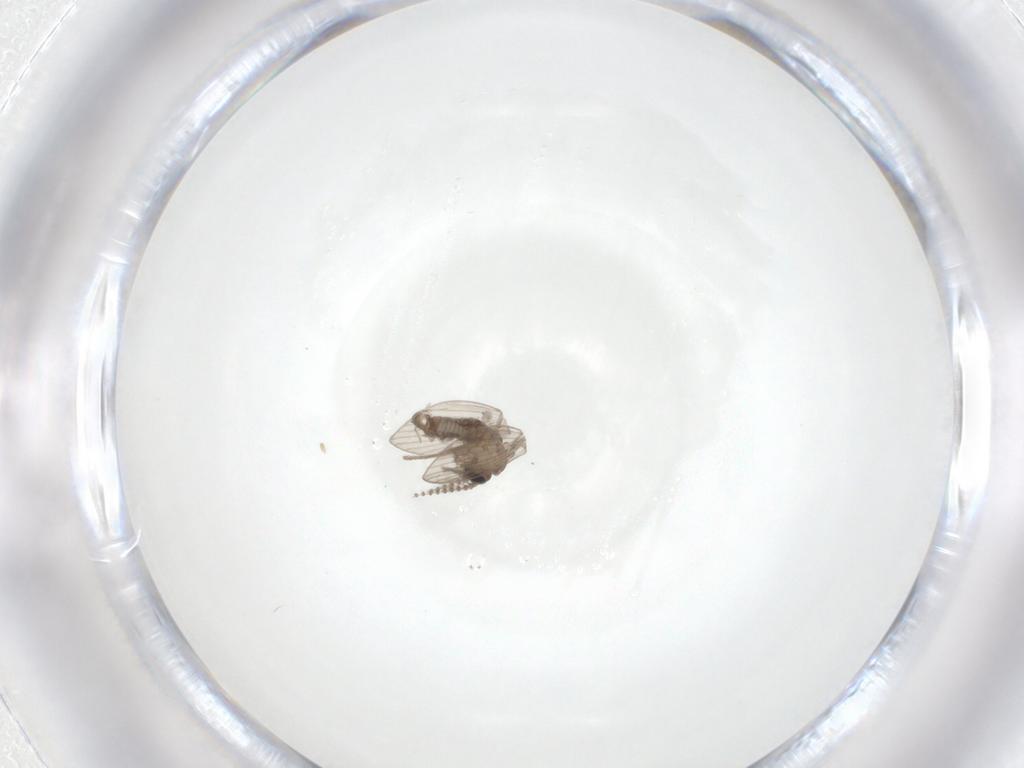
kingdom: Animalia
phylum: Arthropoda
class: Insecta
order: Diptera
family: Psychodidae
